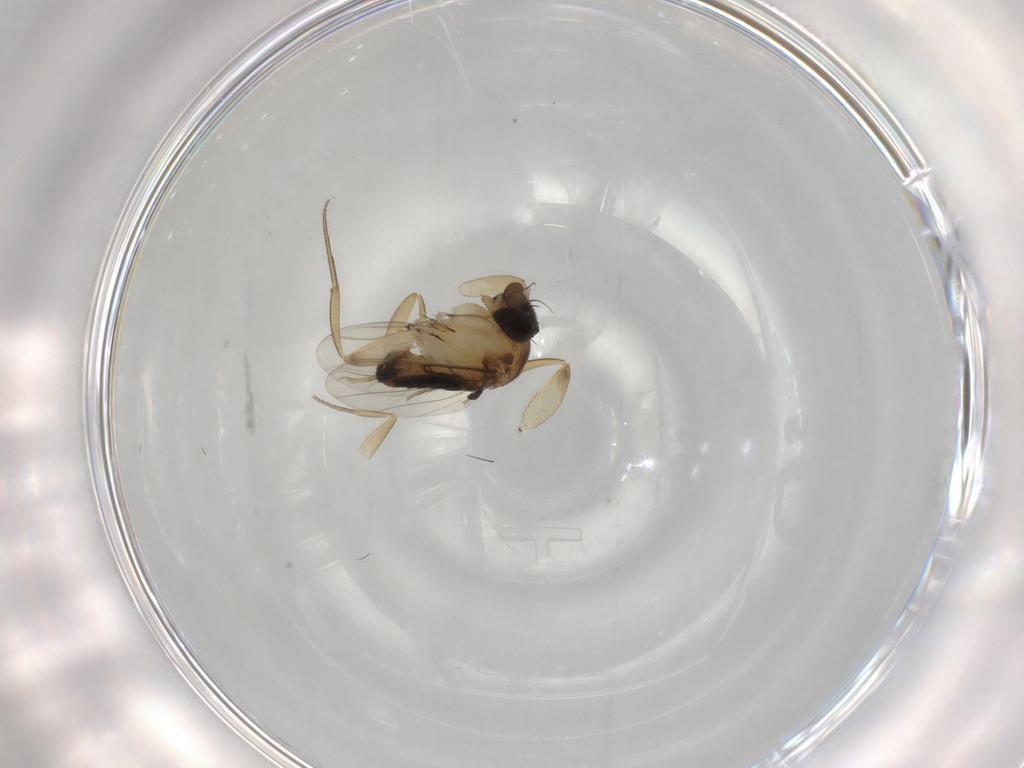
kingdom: Animalia
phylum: Arthropoda
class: Insecta
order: Diptera
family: Phoridae
